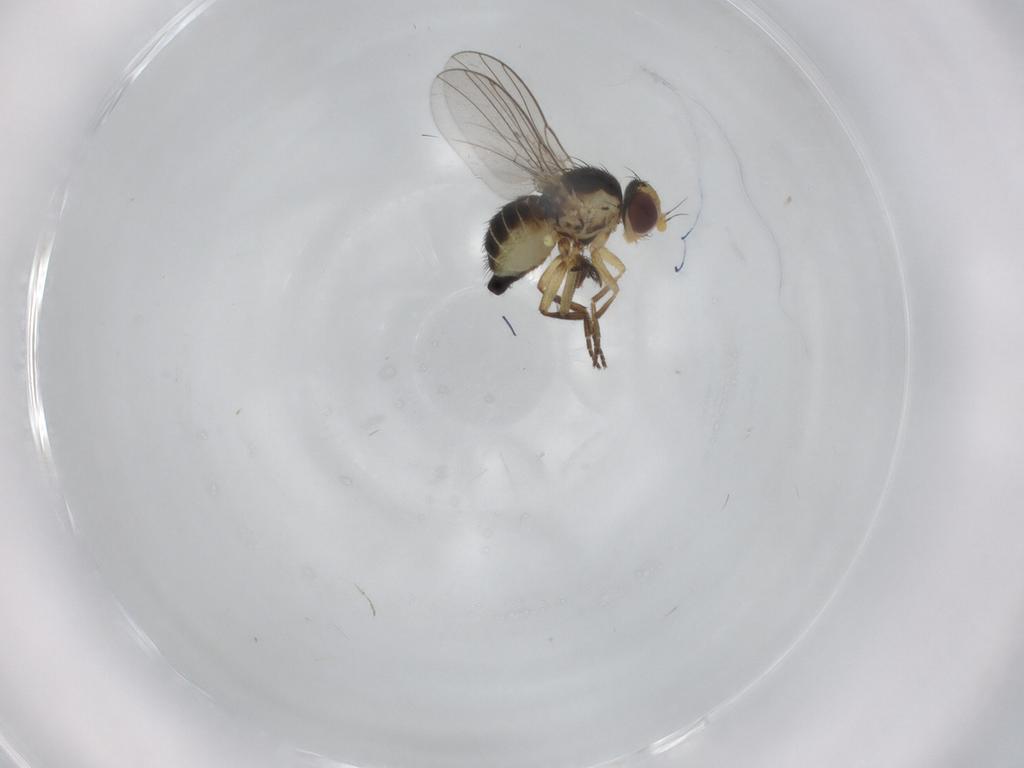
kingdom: Animalia
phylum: Arthropoda
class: Insecta
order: Diptera
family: Agromyzidae
